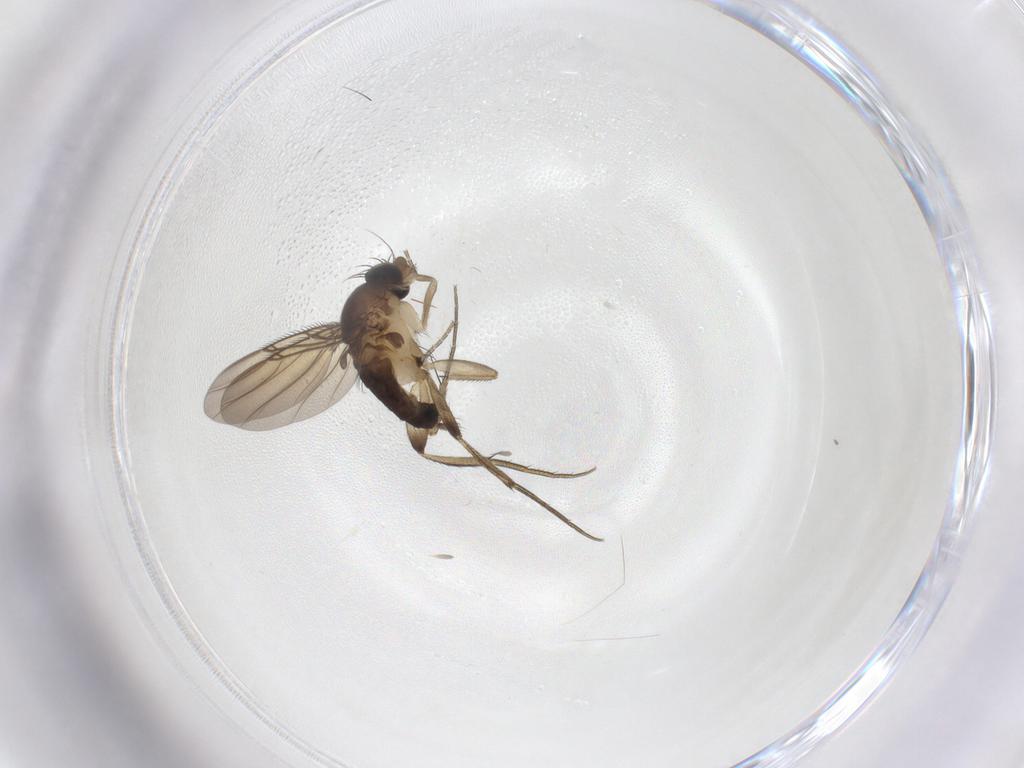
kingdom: Animalia
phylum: Arthropoda
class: Insecta
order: Diptera
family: Phoridae
